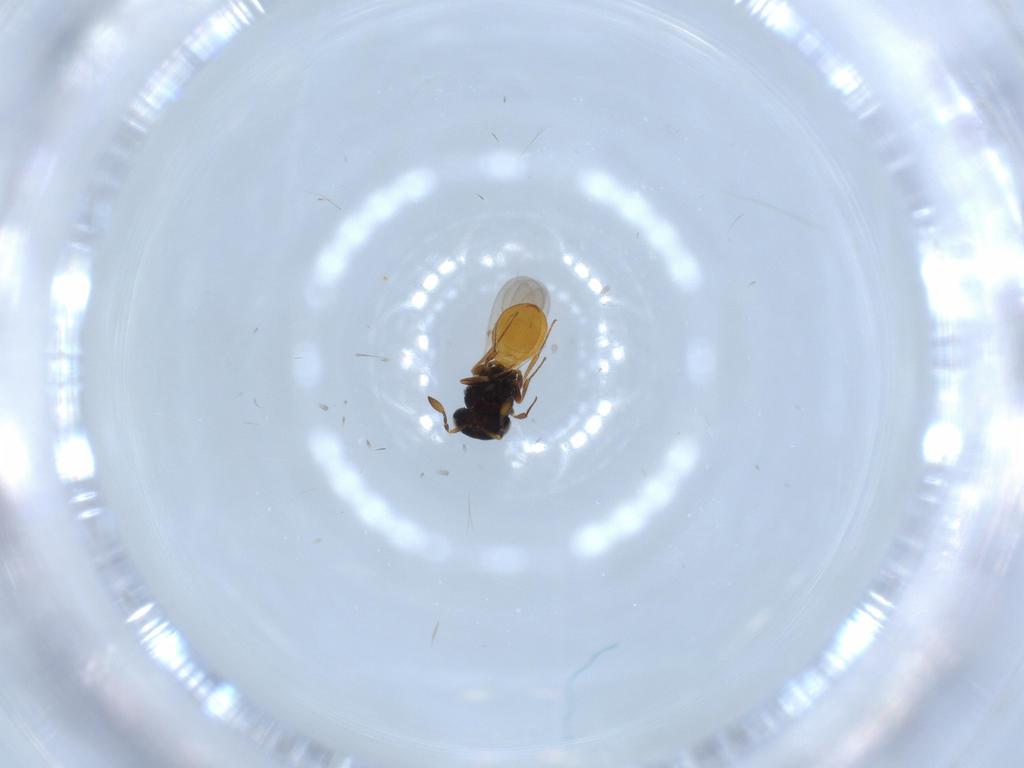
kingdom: Animalia
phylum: Arthropoda
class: Insecta
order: Hymenoptera
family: Scelionidae
